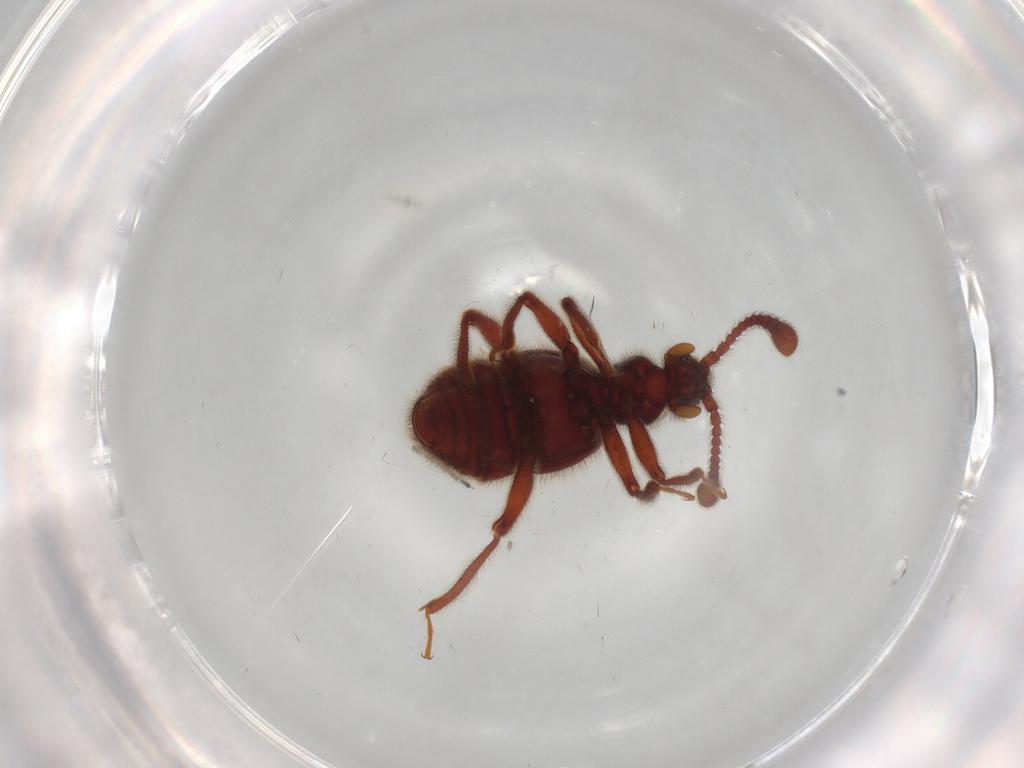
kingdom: Animalia
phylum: Arthropoda
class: Insecta
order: Coleoptera
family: Staphylinidae
